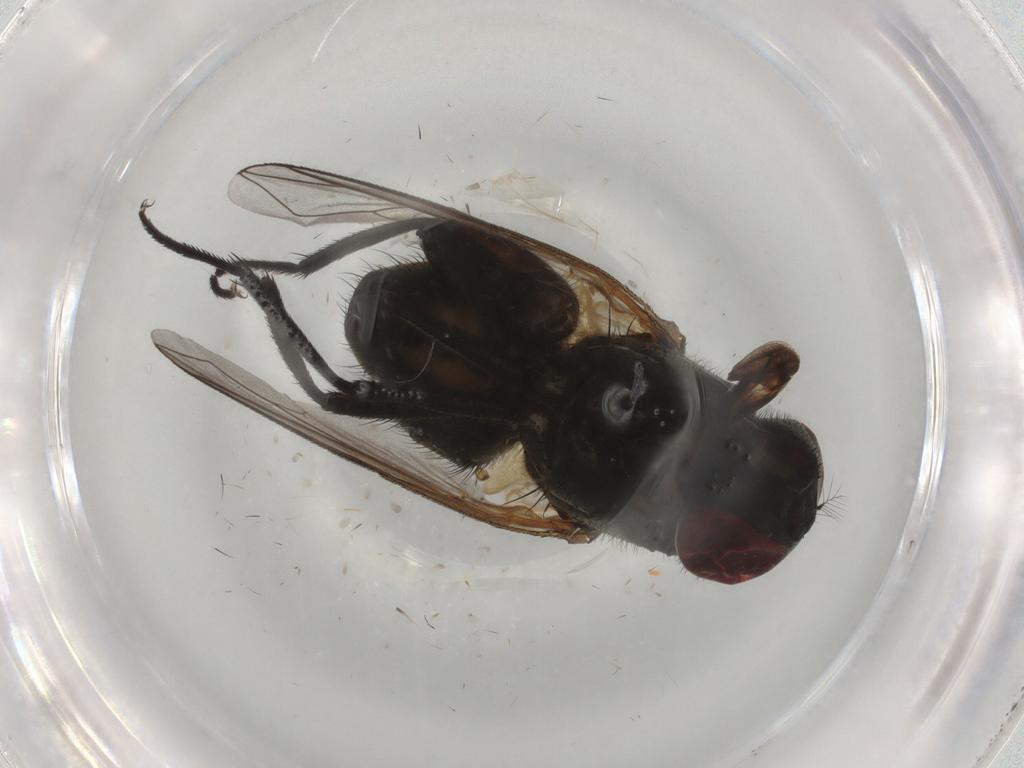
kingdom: Animalia
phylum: Arthropoda
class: Insecta
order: Diptera
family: Muscidae
